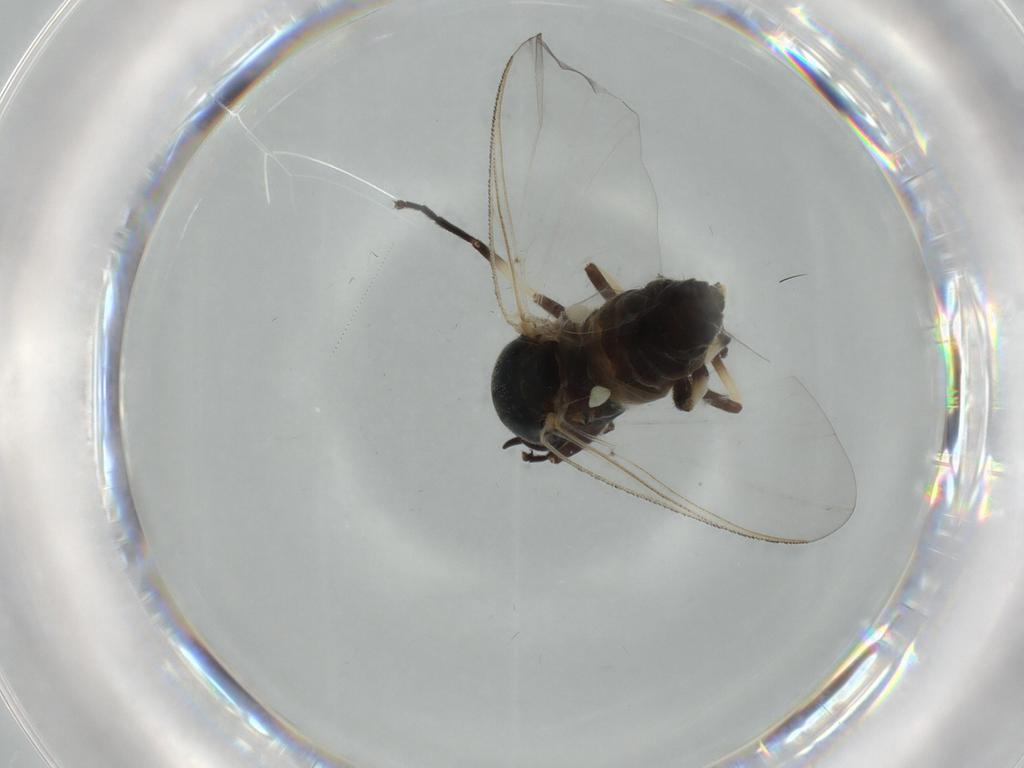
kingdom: Animalia
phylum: Arthropoda
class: Insecta
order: Diptera
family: Cecidomyiidae
